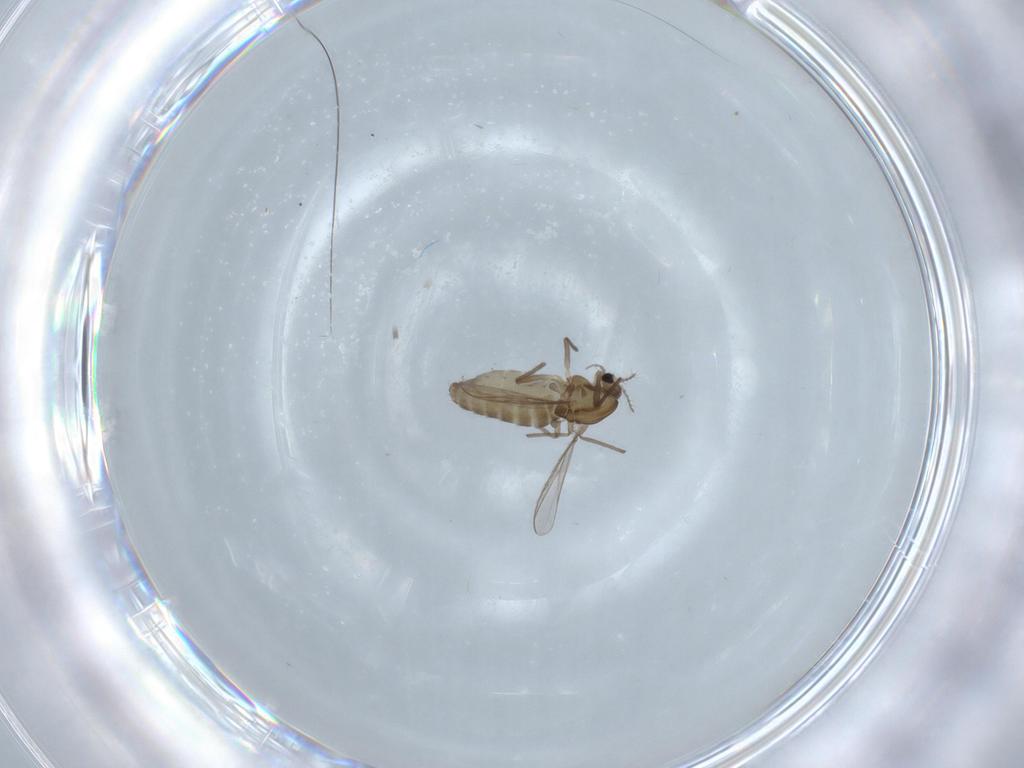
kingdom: Animalia
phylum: Arthropoda
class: Insecta
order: Diptera
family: Chironomidae
